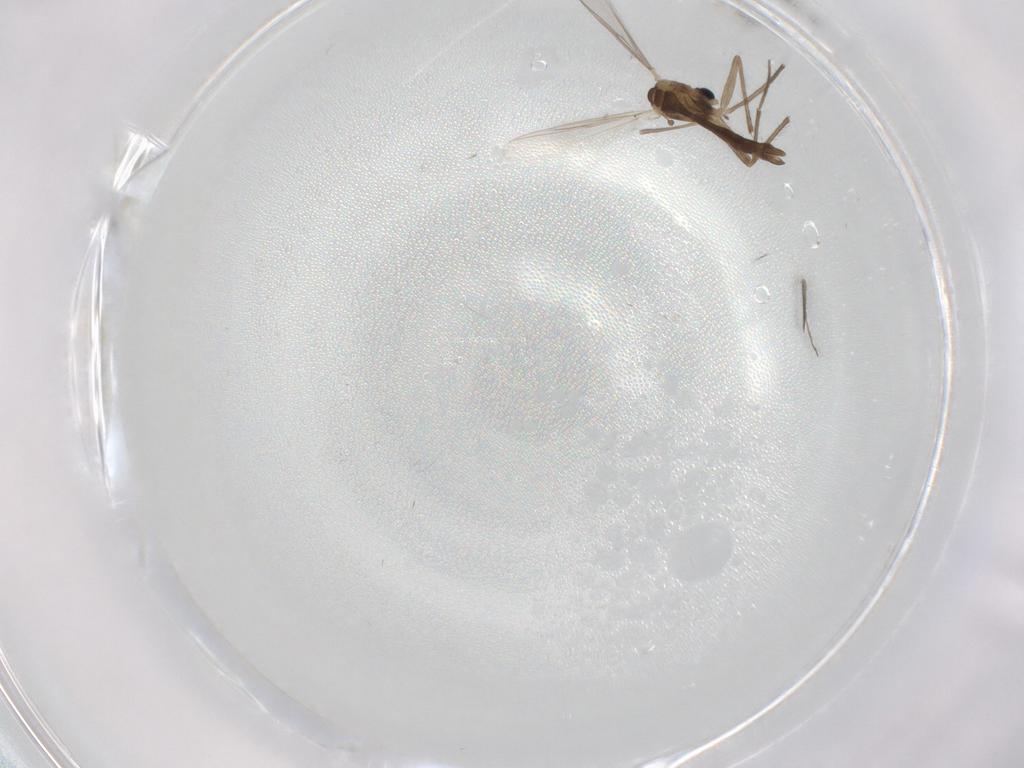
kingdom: Animalia
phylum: Arthropoda
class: Insecta
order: Diptera
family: Chironomidae
